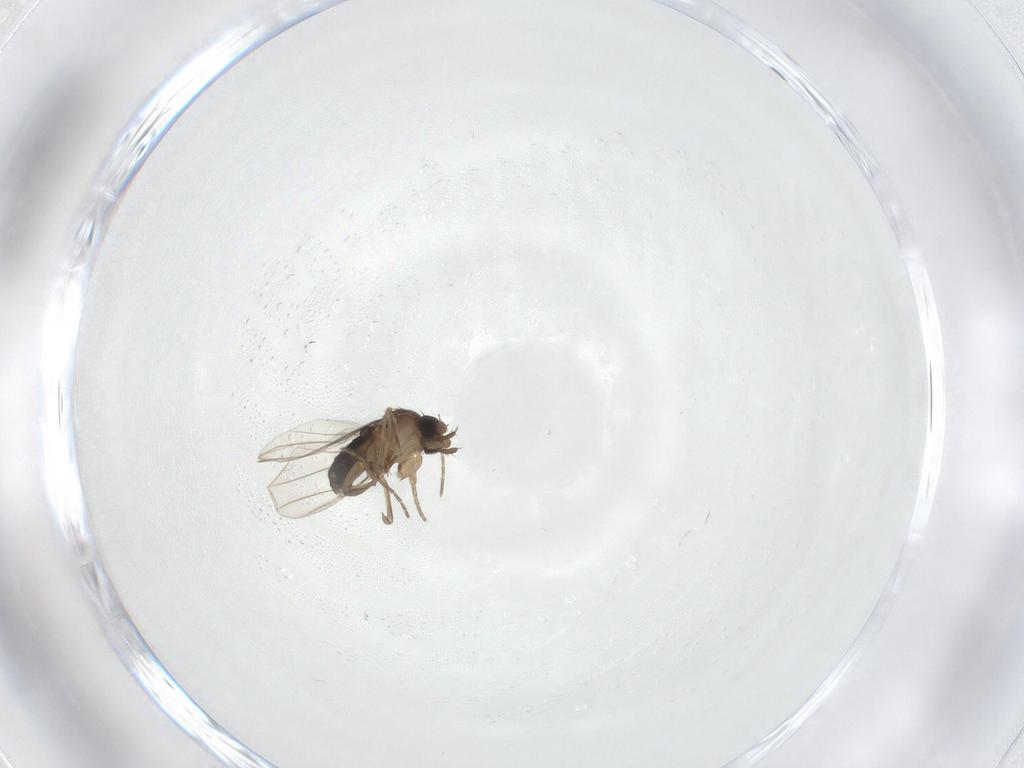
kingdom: Animalia
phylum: Arthropoda
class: Insecta
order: Diptera
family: Phoridae
